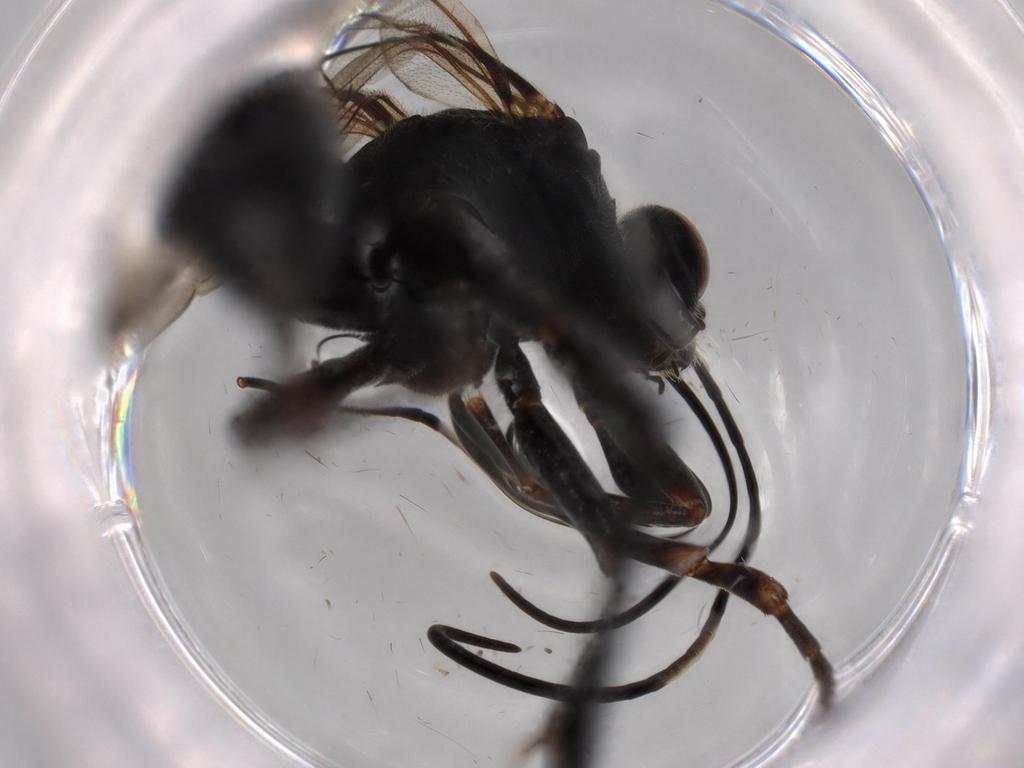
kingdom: Animalia
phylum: Arthropoda
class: Insecta
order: Hymenoptera
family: Ichneumonidae
